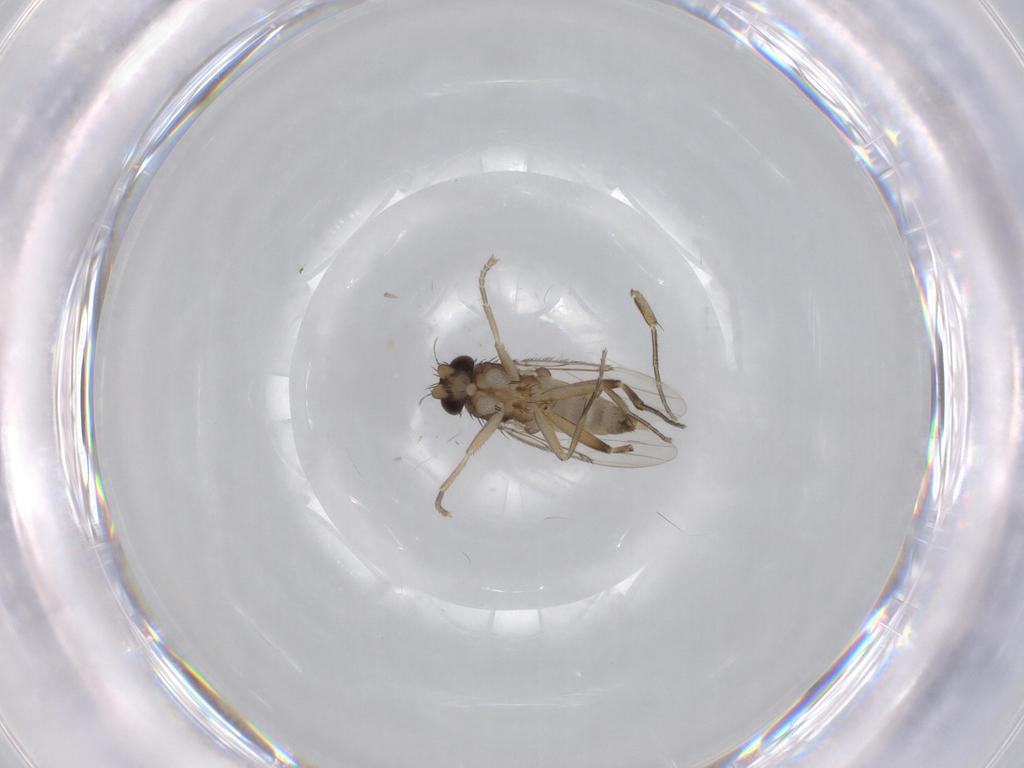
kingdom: Animalia
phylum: Arthropoda
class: Insecta
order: Diptera
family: Phoridae
